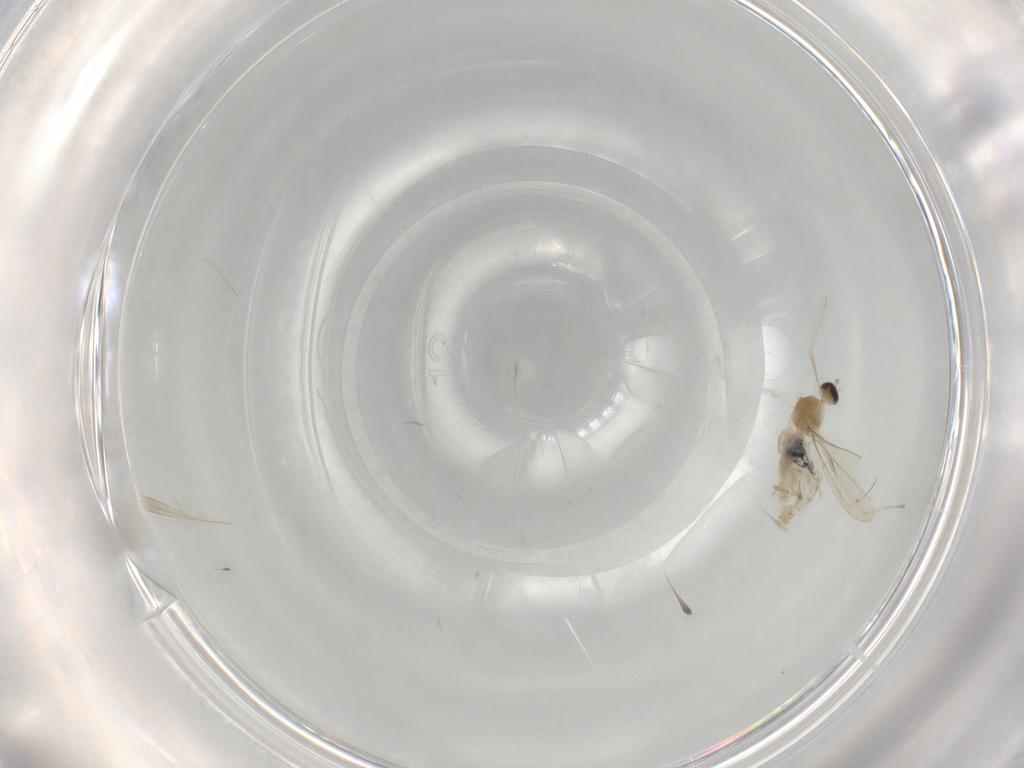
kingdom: Animalia
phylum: Arthropoda
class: Insecta
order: Diptera
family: Cecidomyiidae
